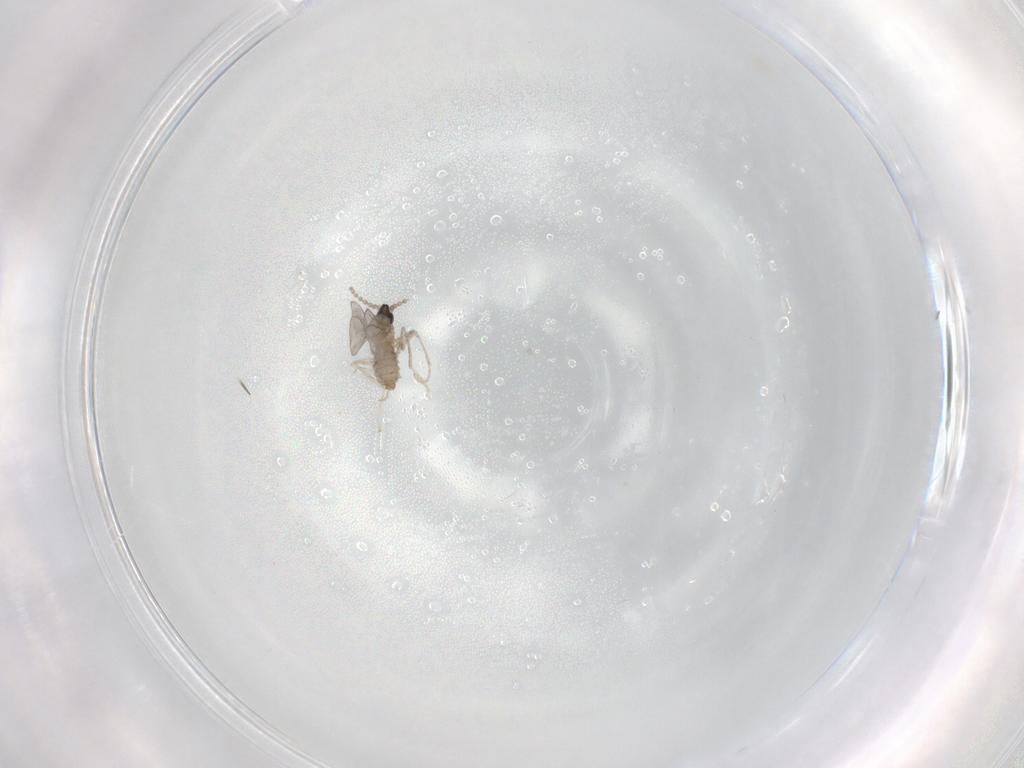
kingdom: Animalia
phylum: Arthropoda
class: Insecta
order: Diptera
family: Cecidomyiidae
